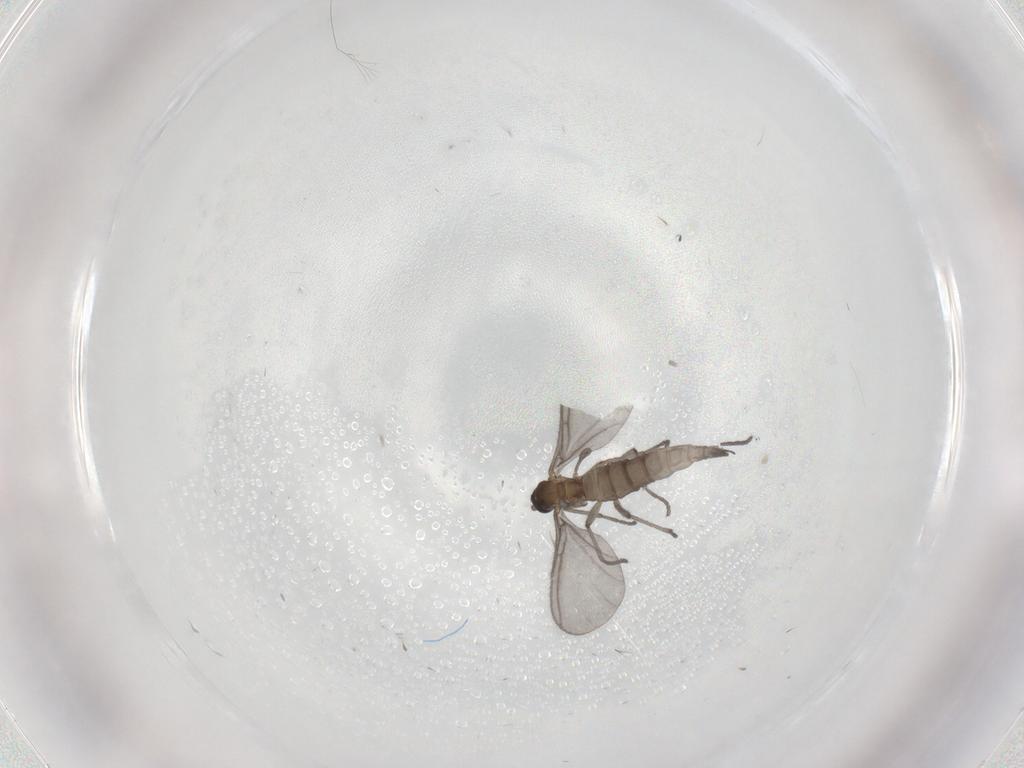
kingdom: Animalia
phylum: Arthropoda
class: Insecta
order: Diptera
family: Sciaridae
